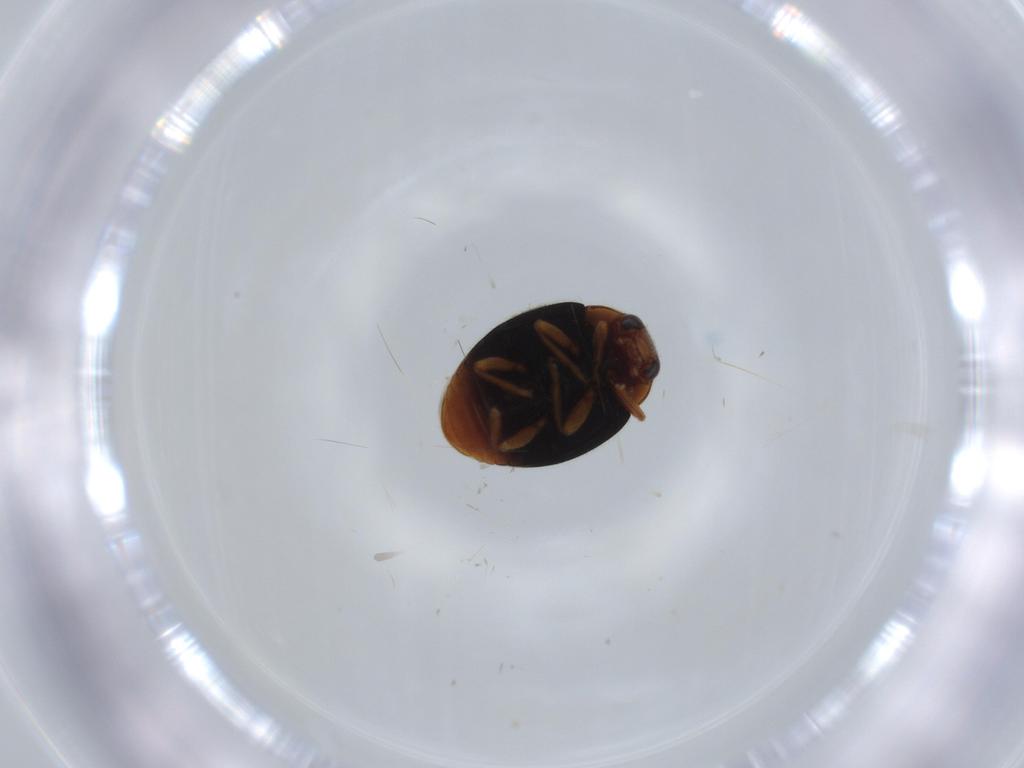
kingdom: Animalia
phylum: Arthropoda
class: Insecta
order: Coleoptera
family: Coccinellidae
